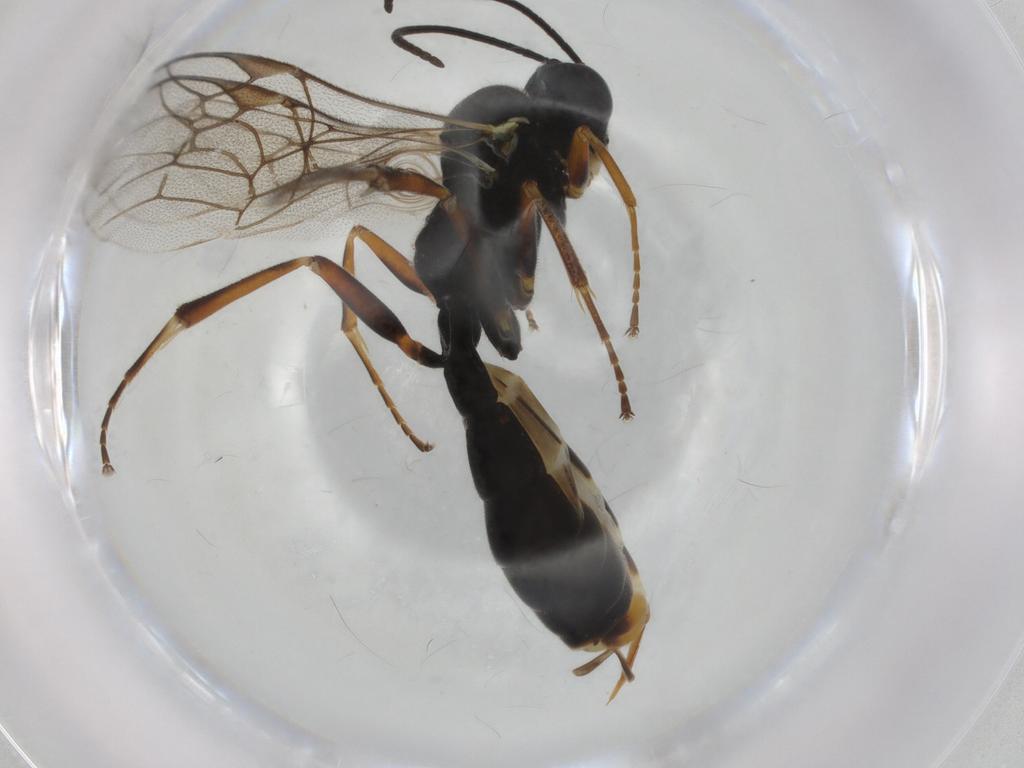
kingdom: Animalia
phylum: Arthropoda
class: Insecta
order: Hymenoptera
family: Ichneumonidae
